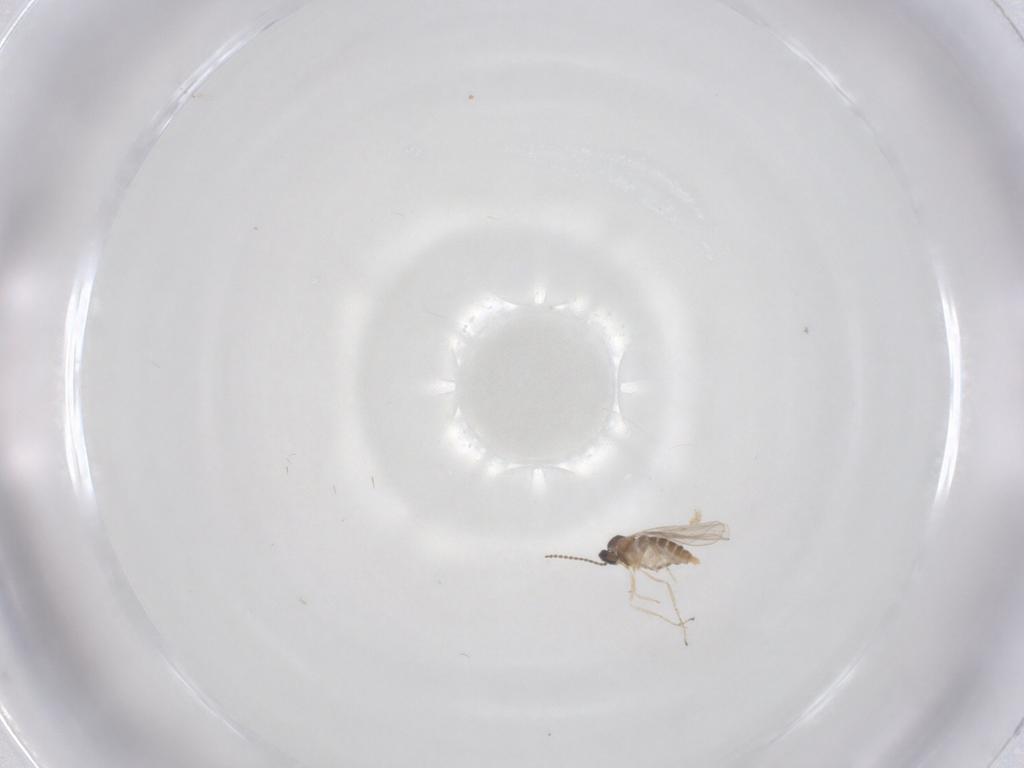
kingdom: Animalia
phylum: Arthropoda
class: Insecta
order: Diptera
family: Cecidomyiidae
